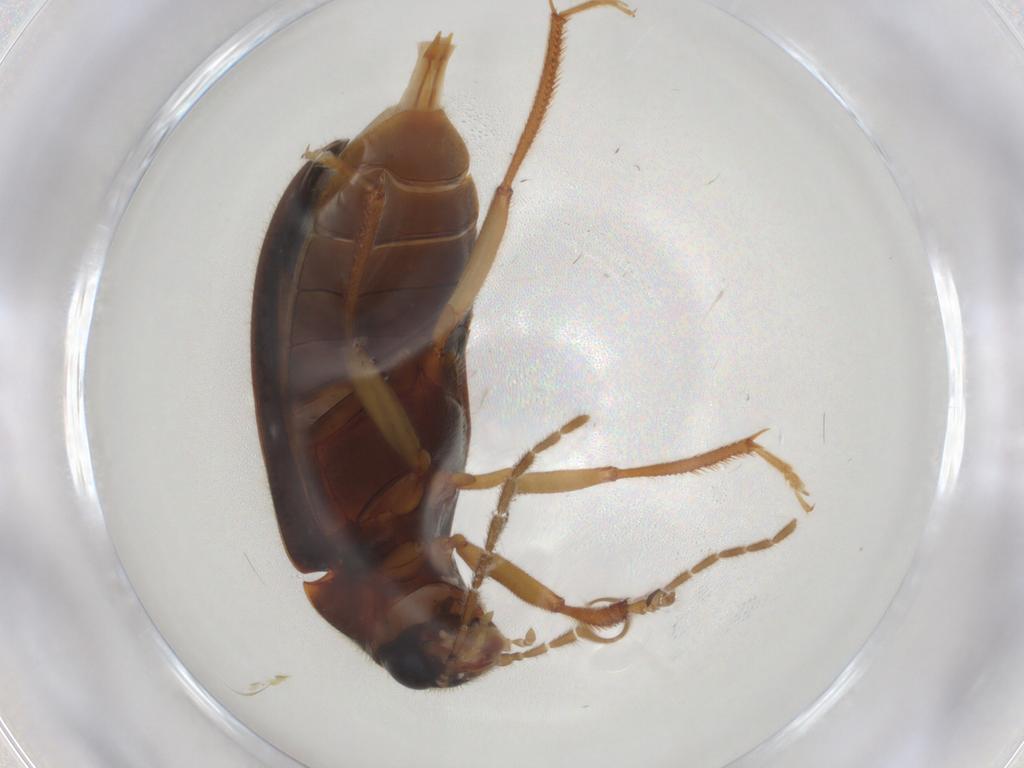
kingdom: Animalia
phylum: Arthropoda
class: Insecta
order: Coleoptera
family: Ptilodactylidae
